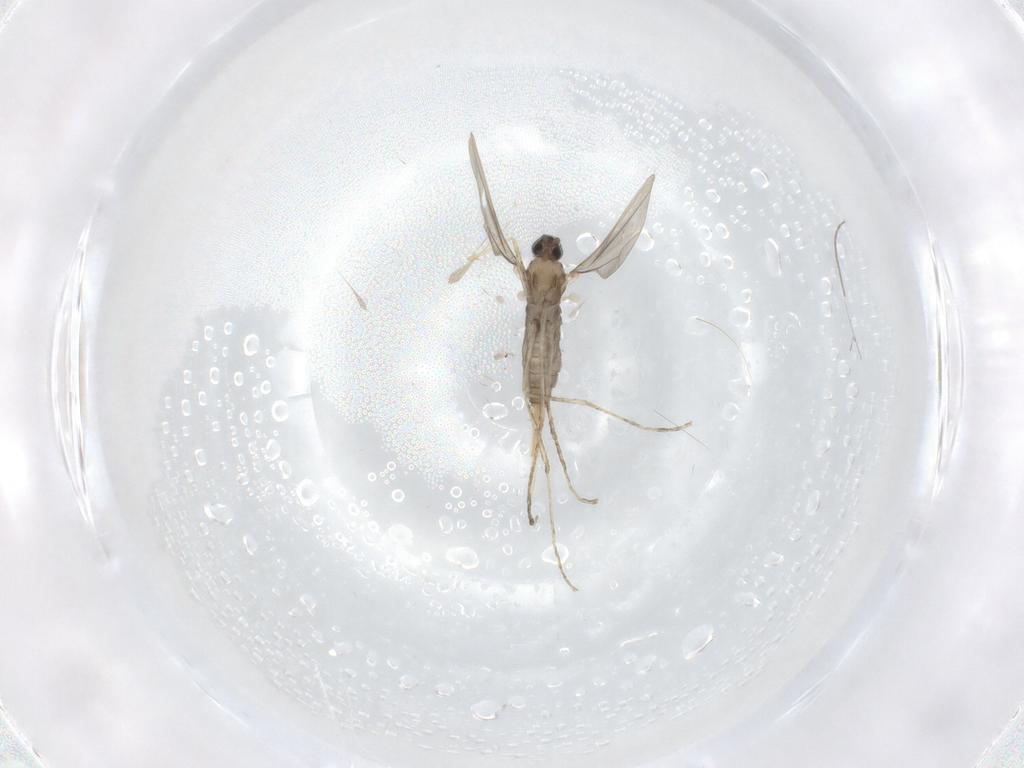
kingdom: Animalia
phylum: Arthropoda
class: Insecta
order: Diptera
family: Cecidomyiidae
